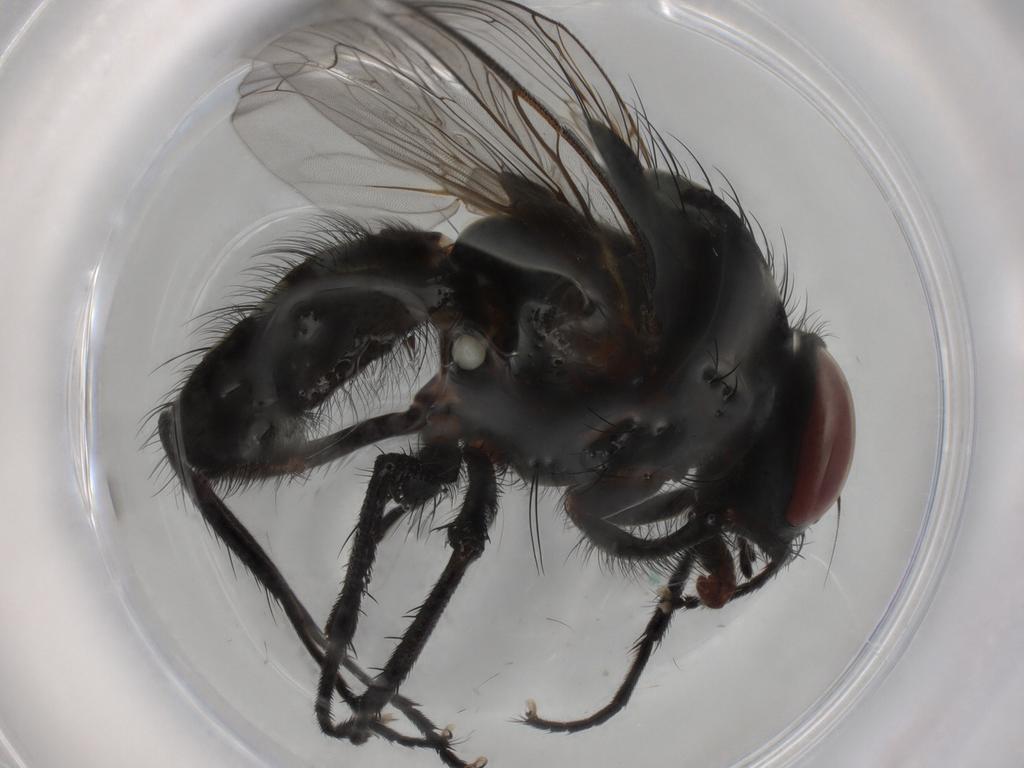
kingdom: Animalia
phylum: Arthropoda
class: Insecta
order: Diptera
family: Anthomyiidae
